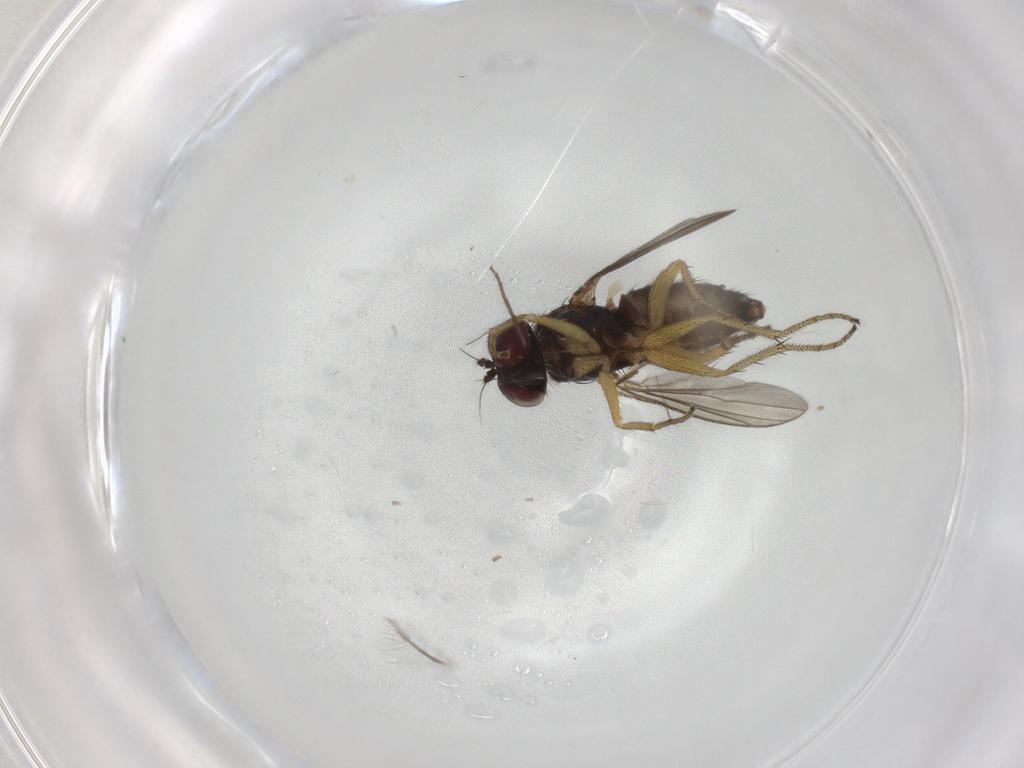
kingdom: Animalia
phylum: Arthropoda
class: Insecta
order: Diptera
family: Dolichopodidae
